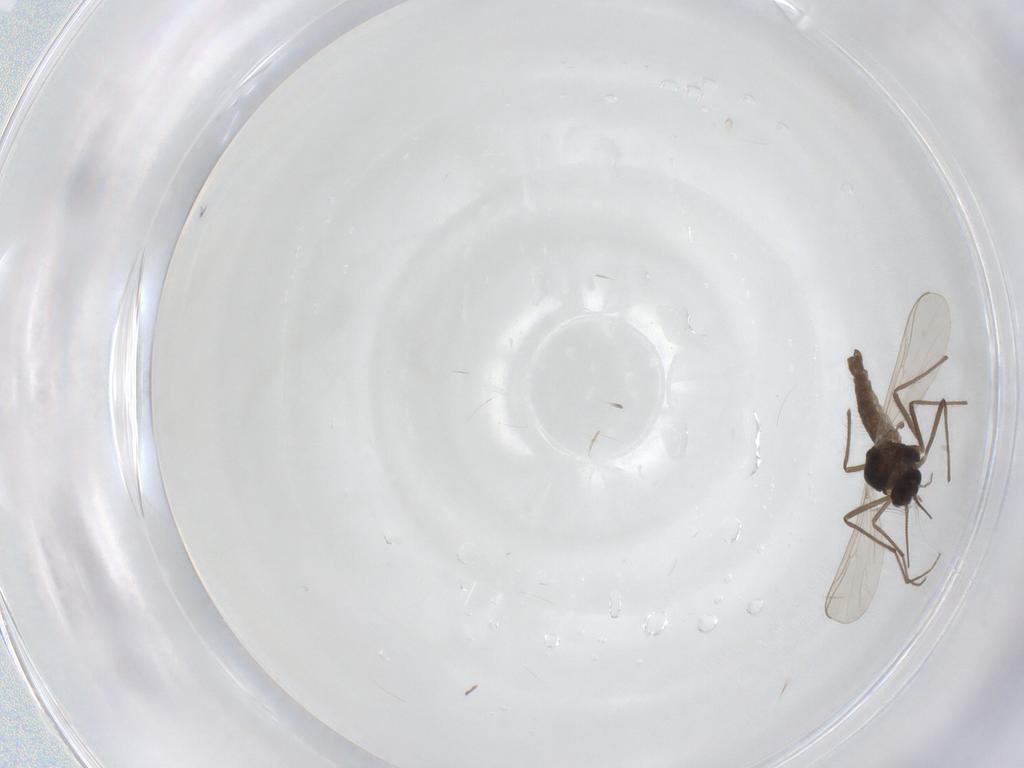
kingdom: Animalia
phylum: Arthropoda
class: Insecta
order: Diptera
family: Chironomidae
